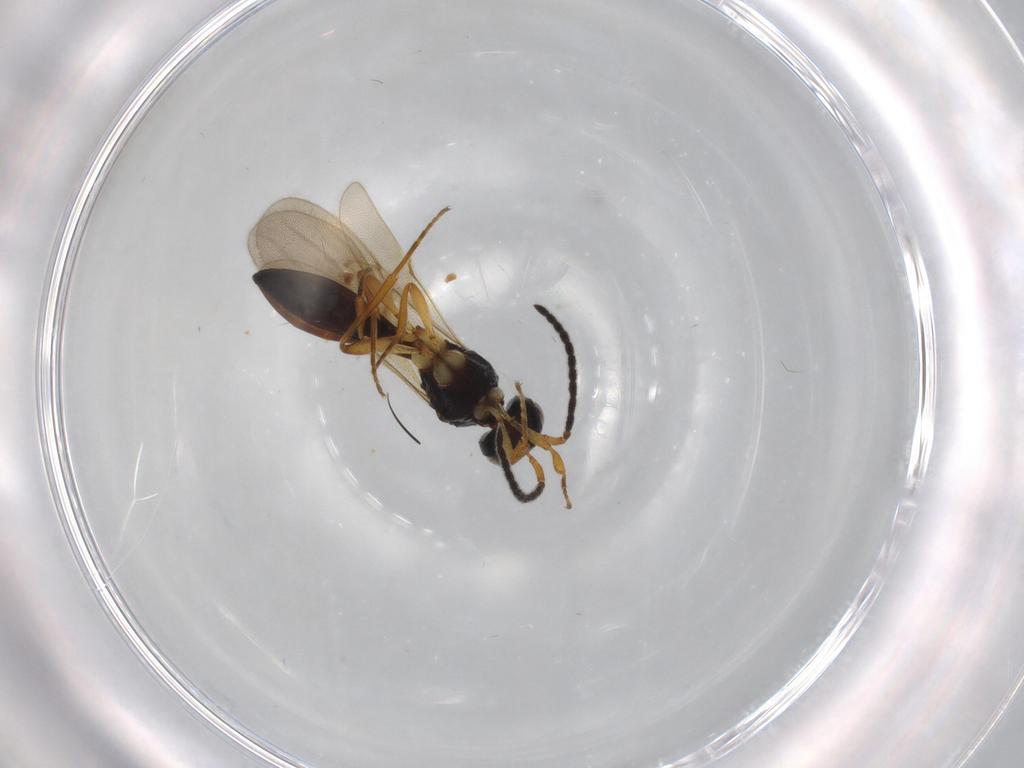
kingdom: Animalia
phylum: Arthropoda
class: Insecta
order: Hymenoptera
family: Scelionidae
